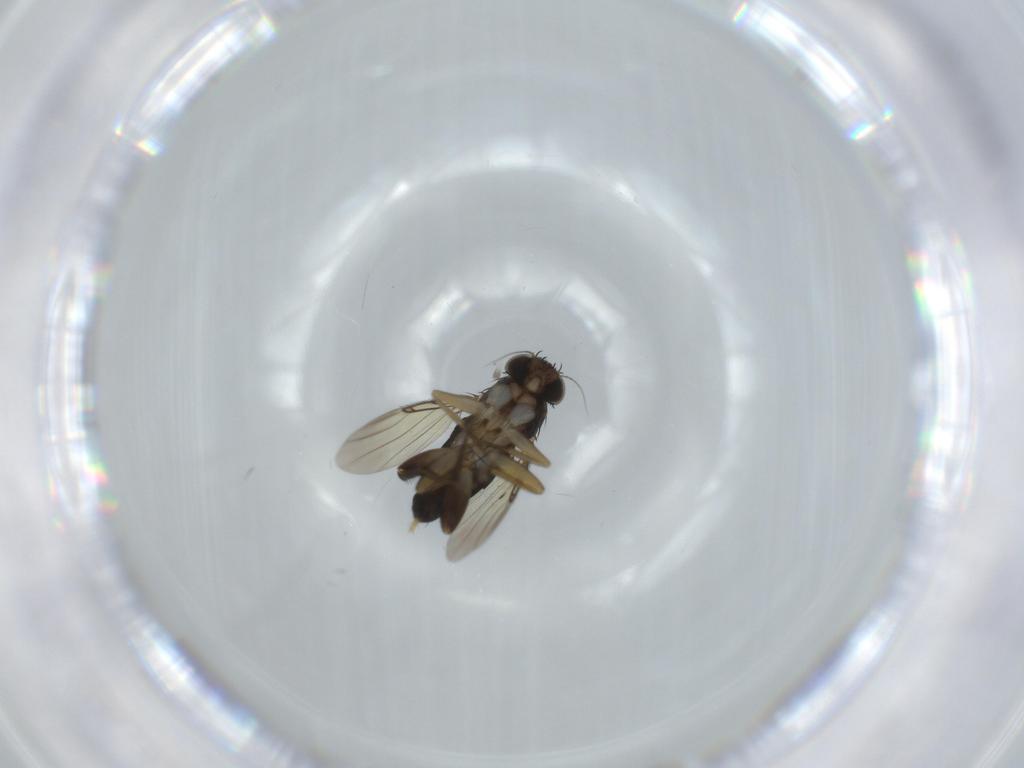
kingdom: Animalia
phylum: Arthropoda
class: Insecta
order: Diptera
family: Phoridae
